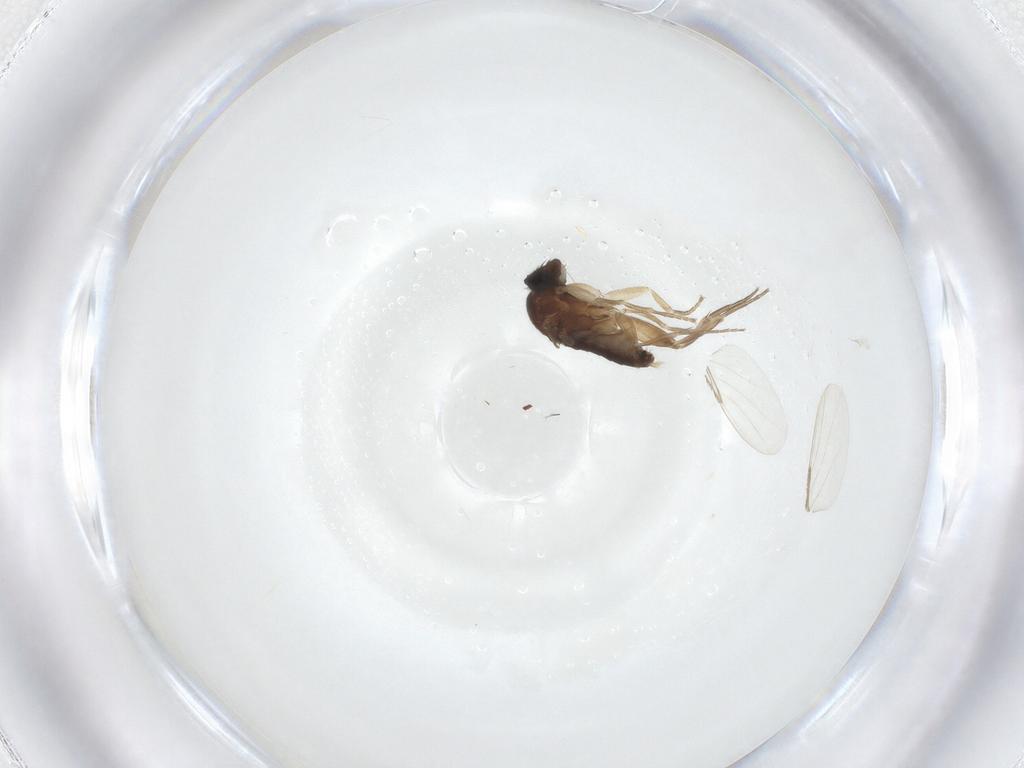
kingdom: Animalia
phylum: Arthropoda
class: Insecta
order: Diptera
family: Phoridae
